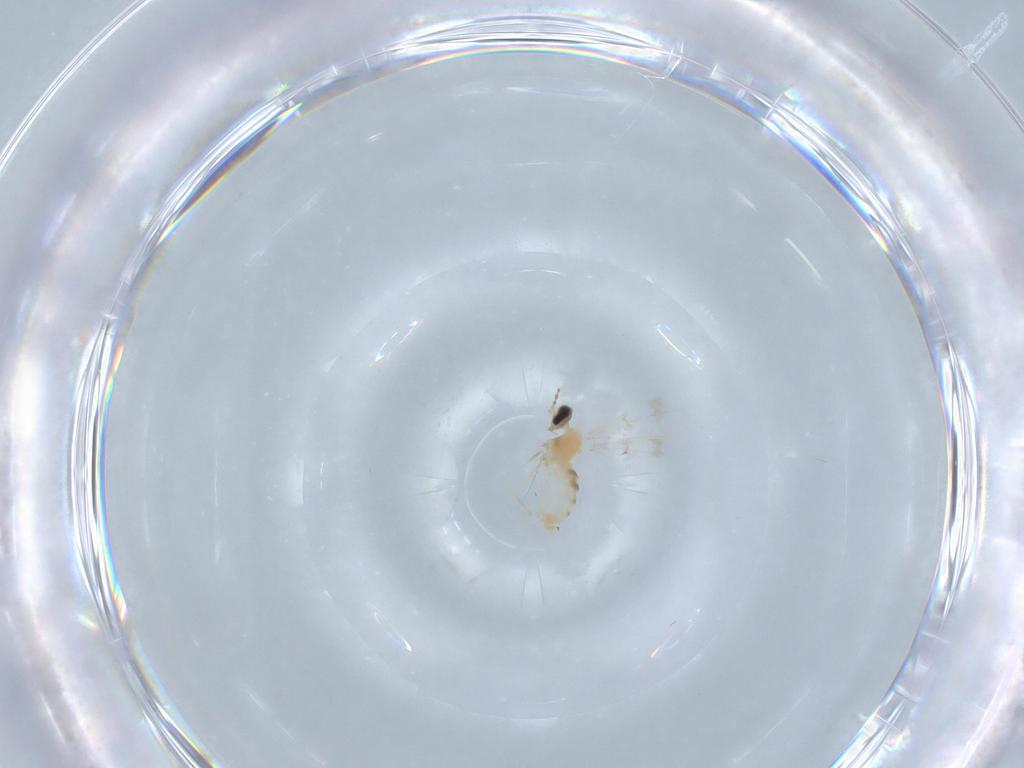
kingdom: Animalia
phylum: Arthropoda
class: Insecta
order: Diptera
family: Cecidomyiidae
